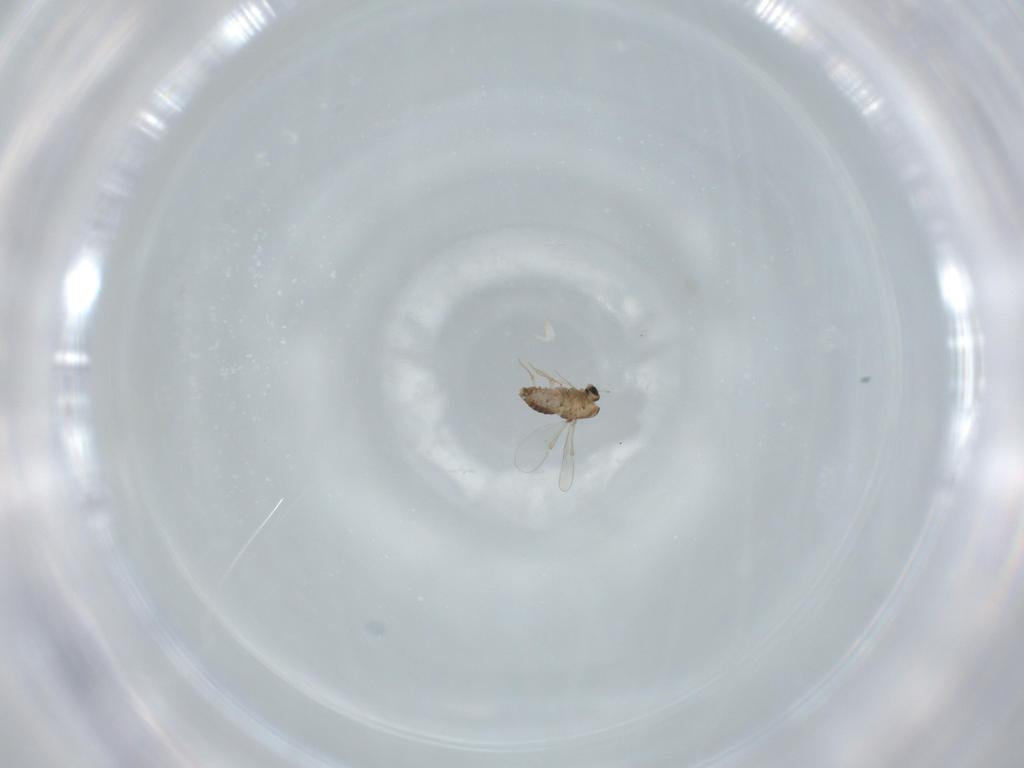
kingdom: Animalia
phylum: Arthropoda
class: Insecta
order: Diptera
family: Chironomidae
